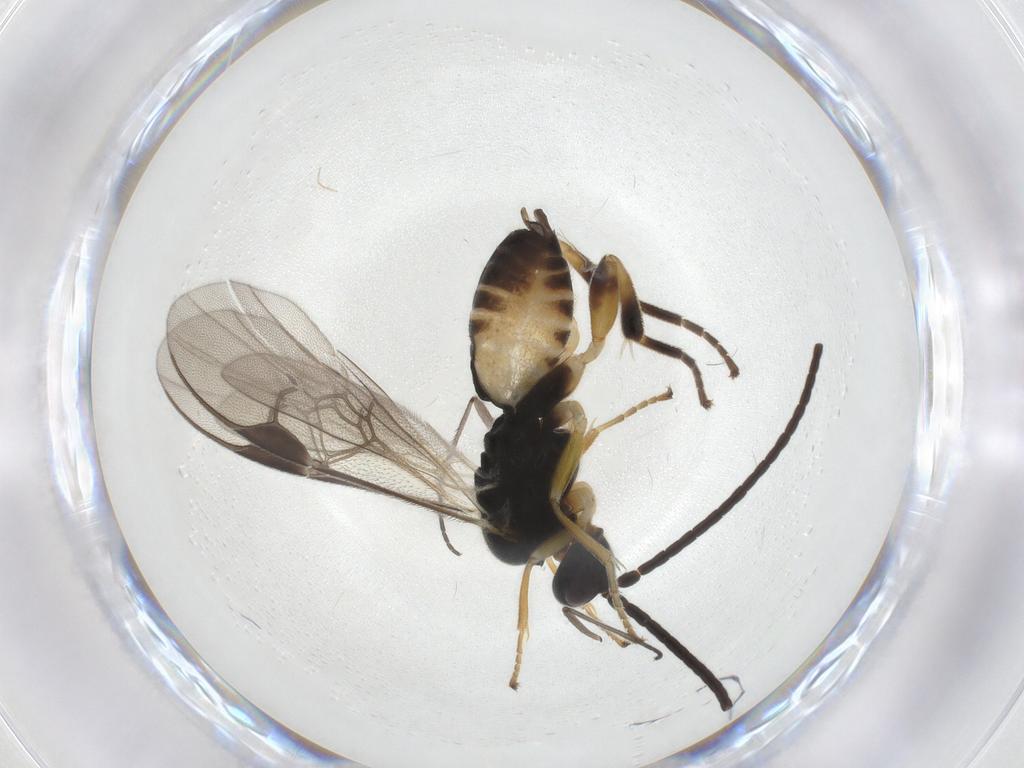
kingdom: Animalia
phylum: Arthropoda
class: Insecta
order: Hymenoptera
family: Braconidae
